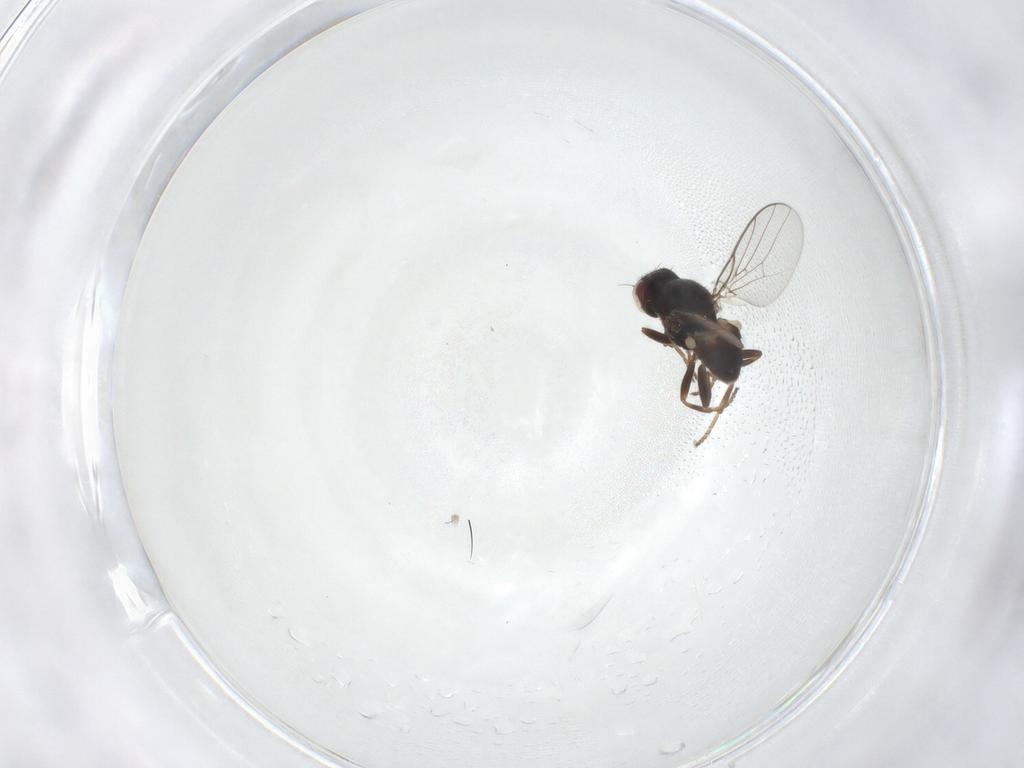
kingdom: Animalia
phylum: Arthropoda
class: Insecta
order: Diptera
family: Chloropidae
